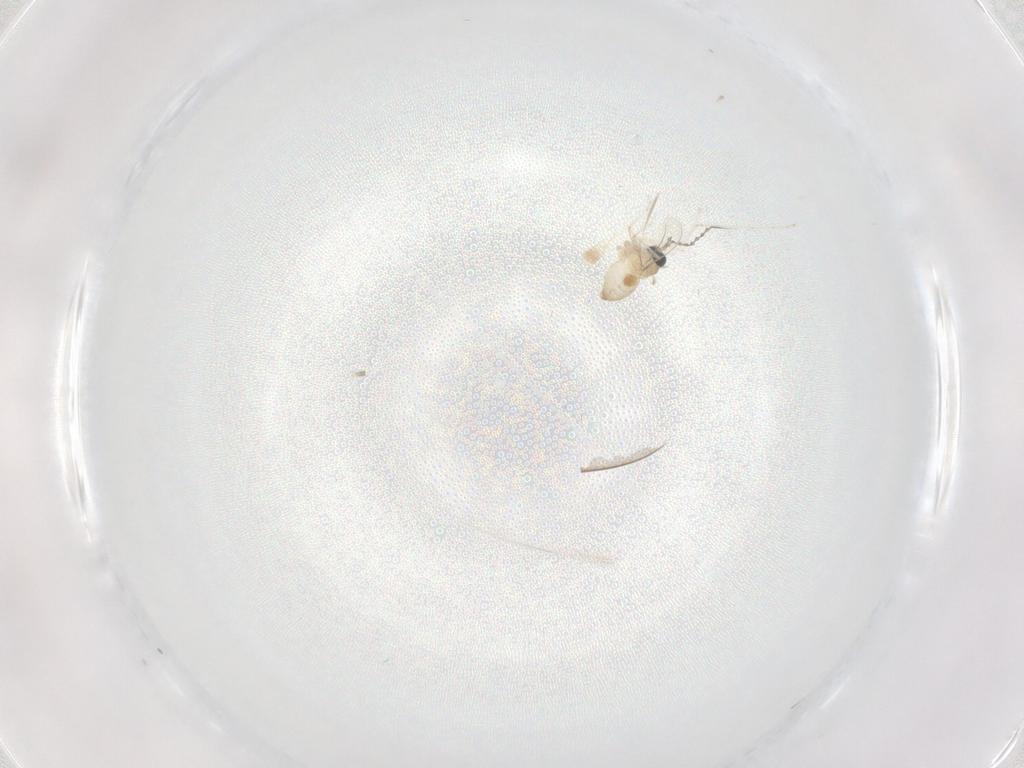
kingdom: Animalia
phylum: Arthropoda
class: Insecta
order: Diptera
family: Cecidomyiidae
